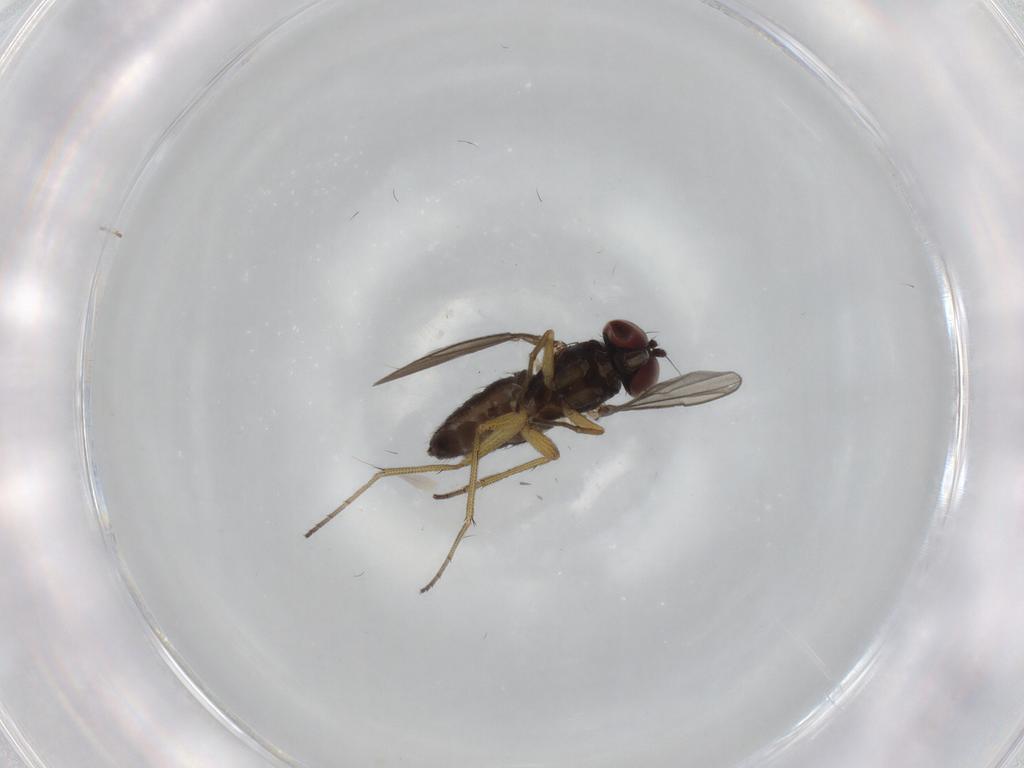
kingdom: Animalia
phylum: Arthropoda
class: Insecta
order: Diptera
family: Dolichopodidae
